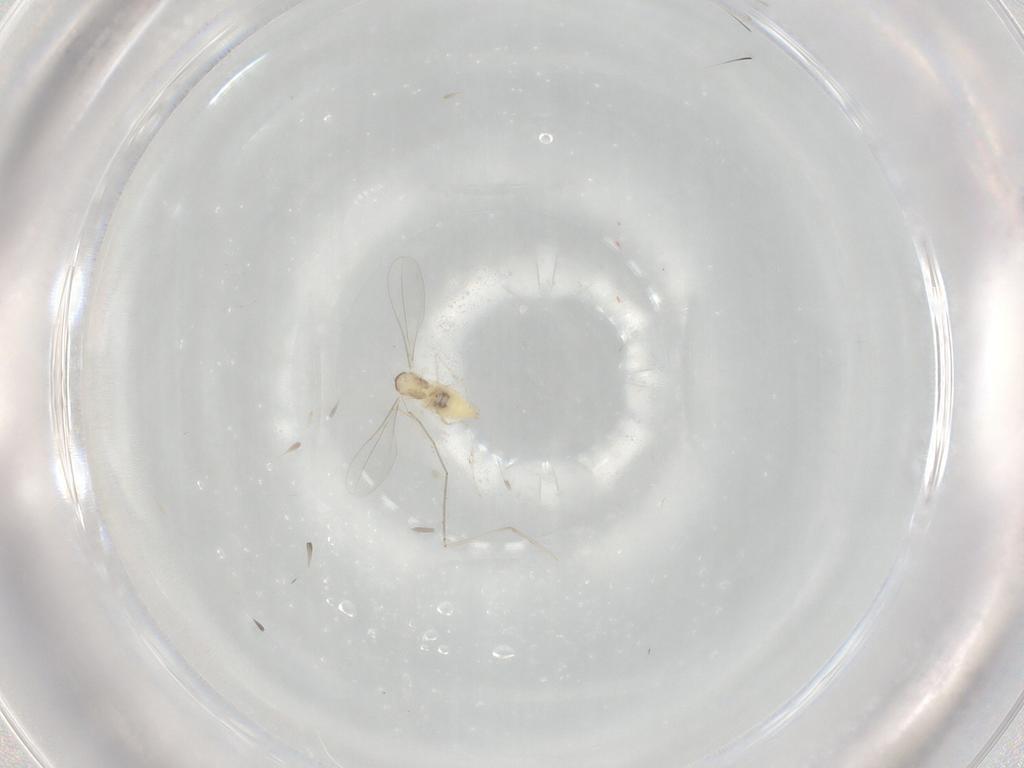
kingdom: Animalia
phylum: Arthropoda
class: Insecta
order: Diptera
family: Cecidomyiidae
